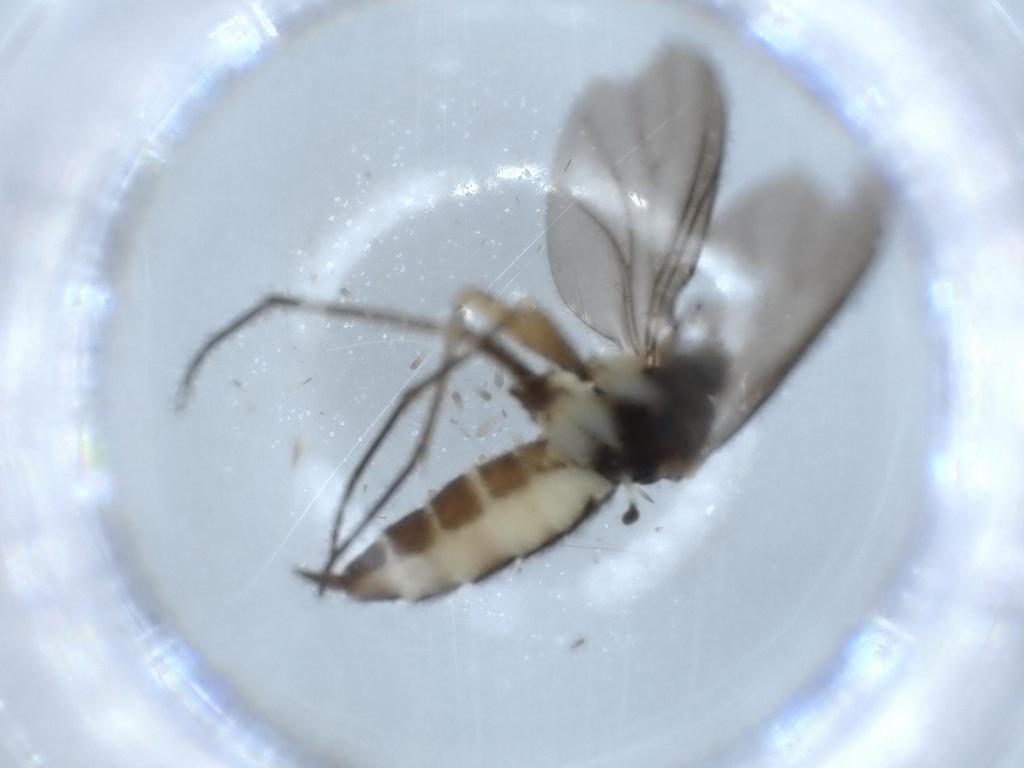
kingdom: Animalia
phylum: Arthropoda
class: Insecta
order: Diptera
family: Sciaridae
